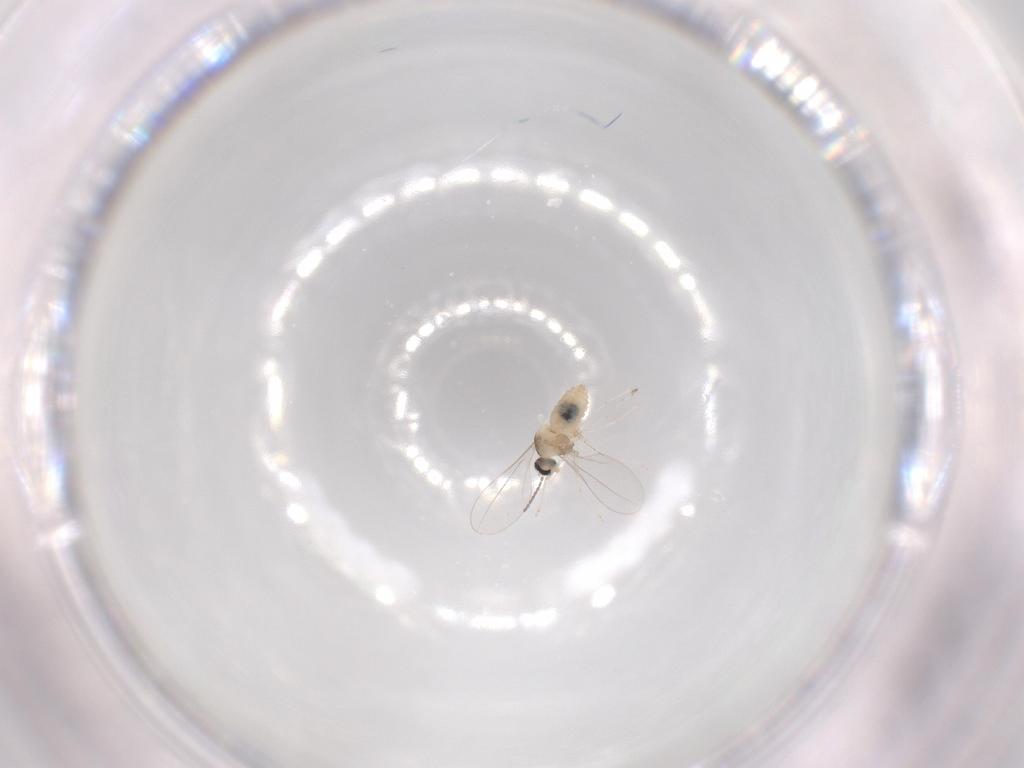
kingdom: Animalia
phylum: Arthropoda
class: Insecta
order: Diptera
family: Cecidomyiidae
